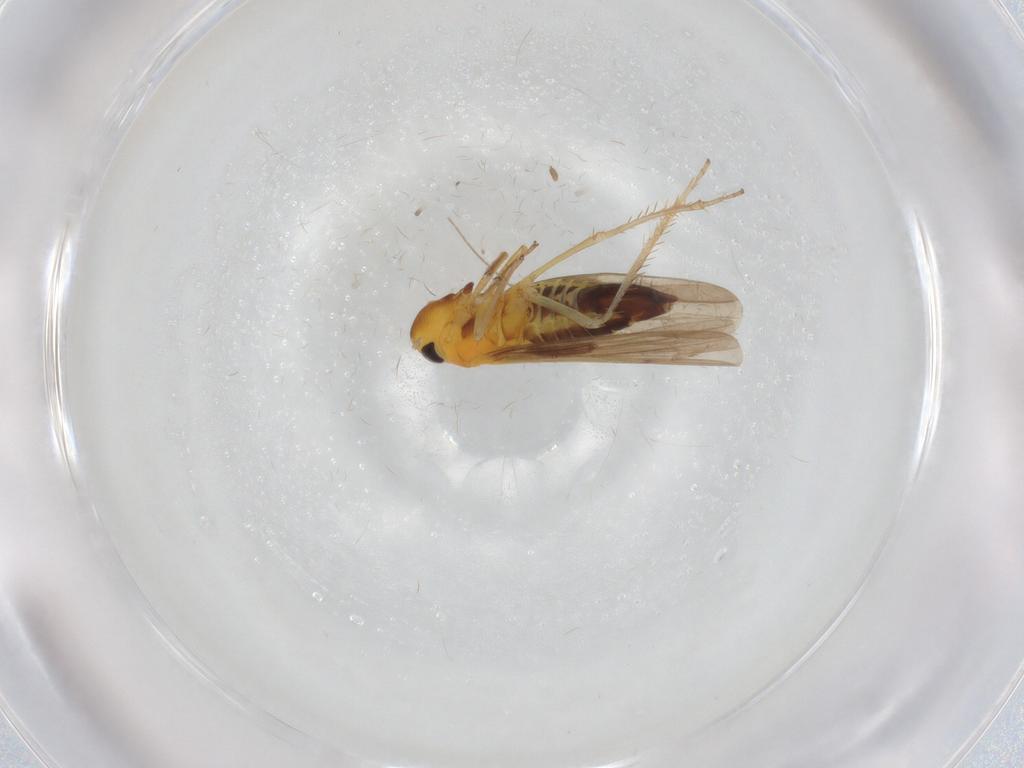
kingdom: Animalia
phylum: Arthropoda
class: Insecta
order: Hemiptera
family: Cicadellidae
